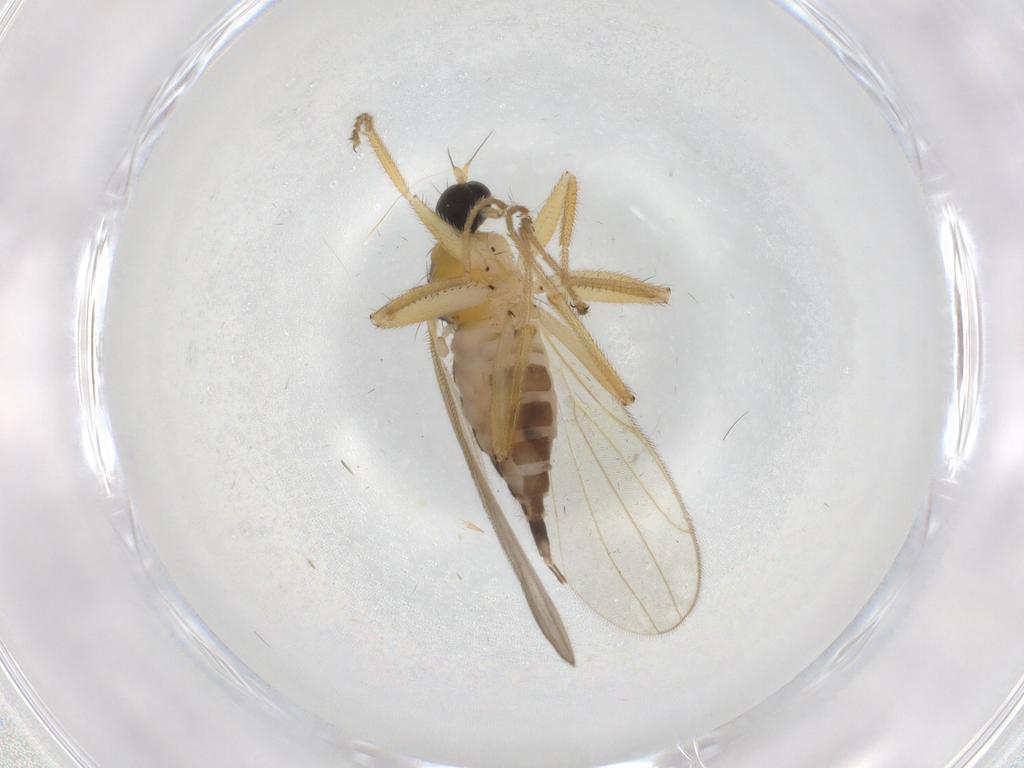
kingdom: Animalia
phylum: Arthropoda
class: Insecta
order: Diptera
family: Hybotidae
